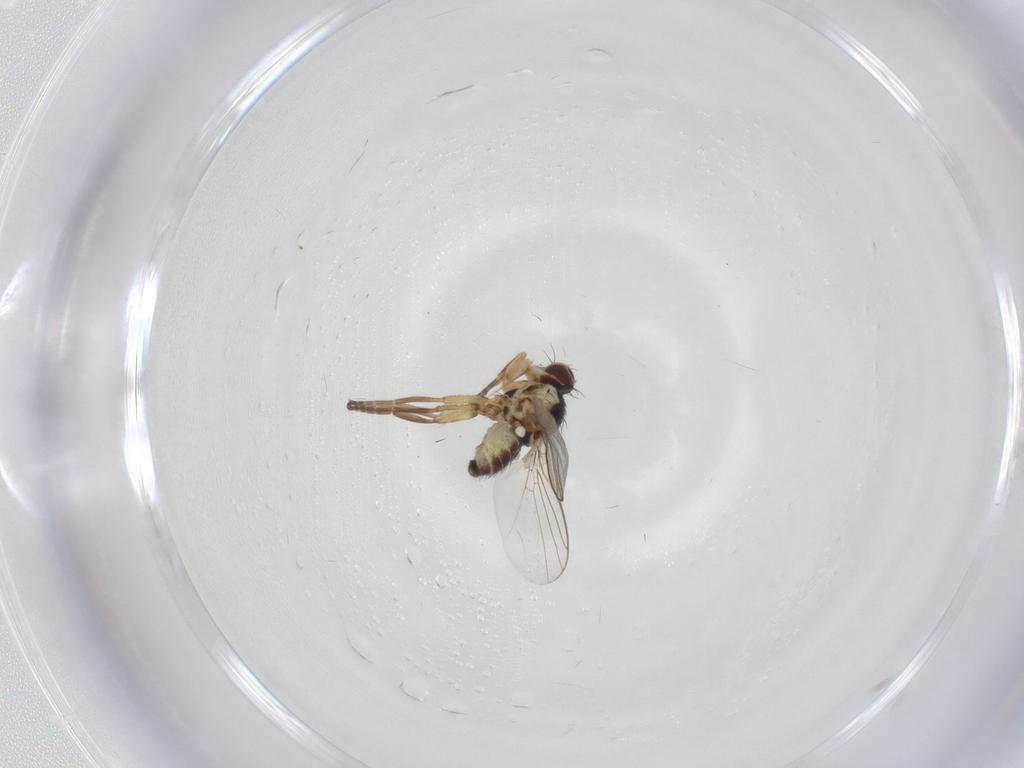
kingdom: Animalia
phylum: Arthropoda
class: Insecta
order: Diptera
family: Agromyzidae
